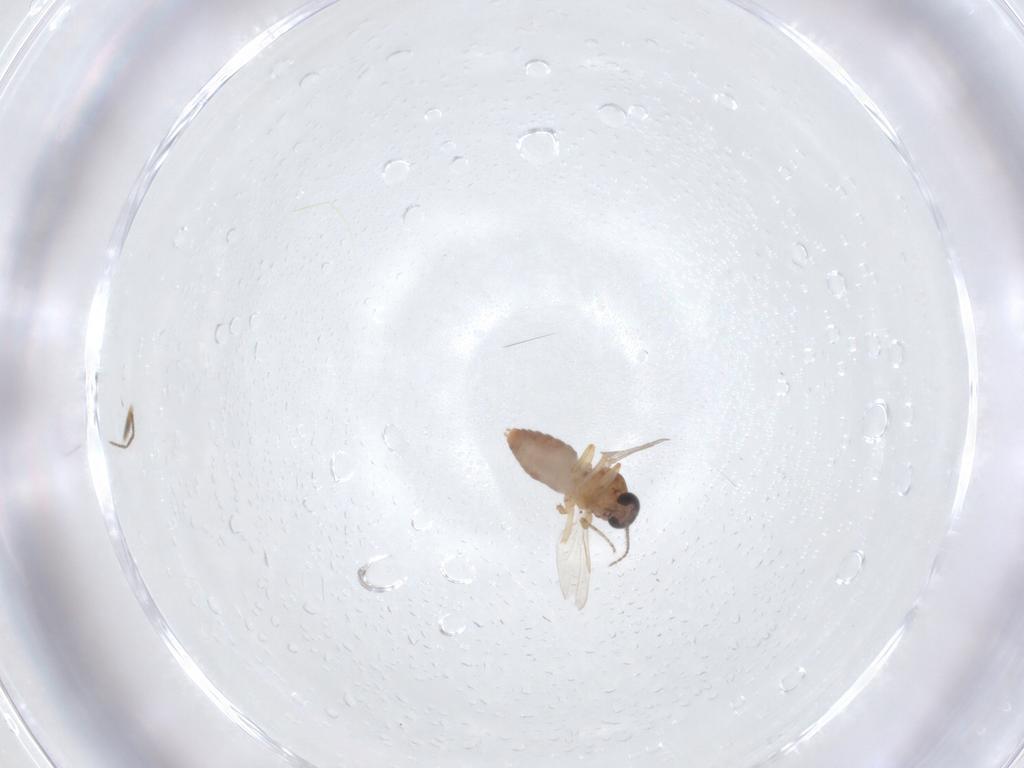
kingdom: Animalia
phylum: Arthropoda
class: Insecta
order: Diptera
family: Ceratopogonidae
